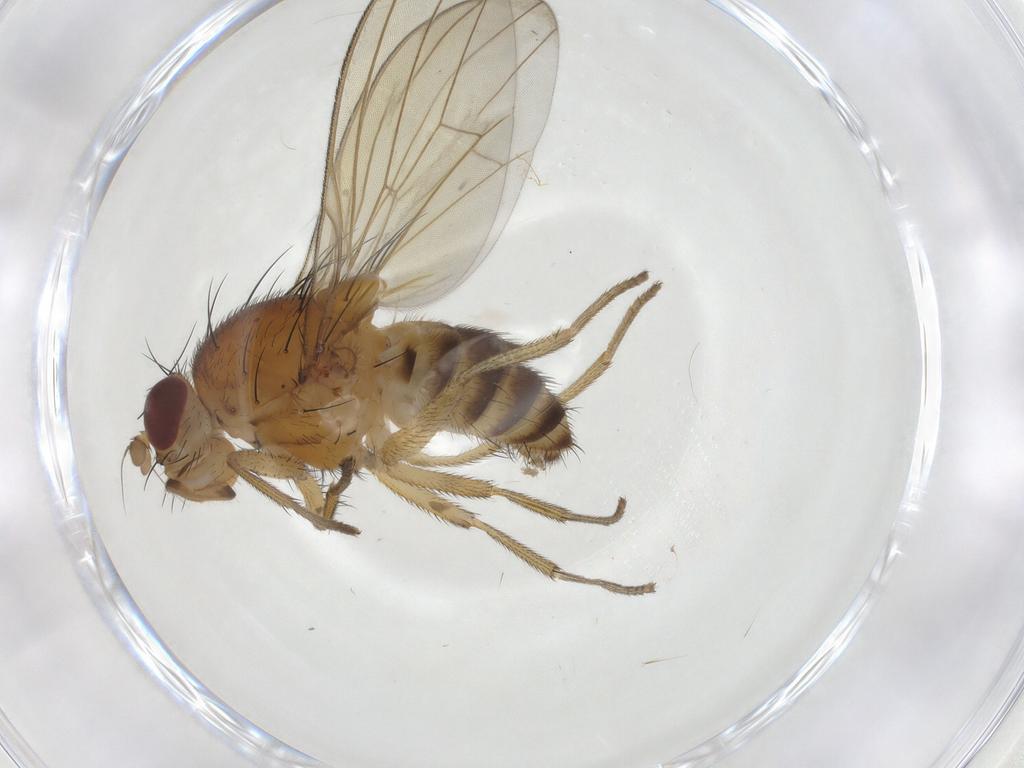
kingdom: Animalia
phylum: Arthropoda
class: Insecta
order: Diptera
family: Lauxaniidae
